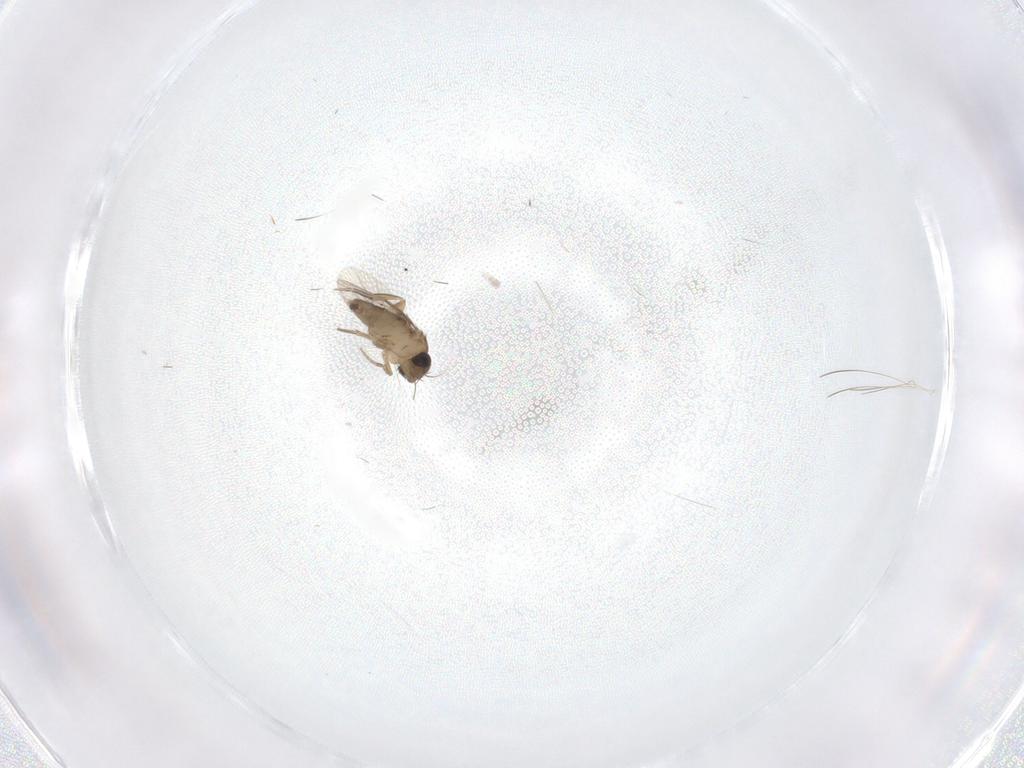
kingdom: Animalia
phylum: Arthropoda
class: Insecta
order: Diptera
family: Phoridae
